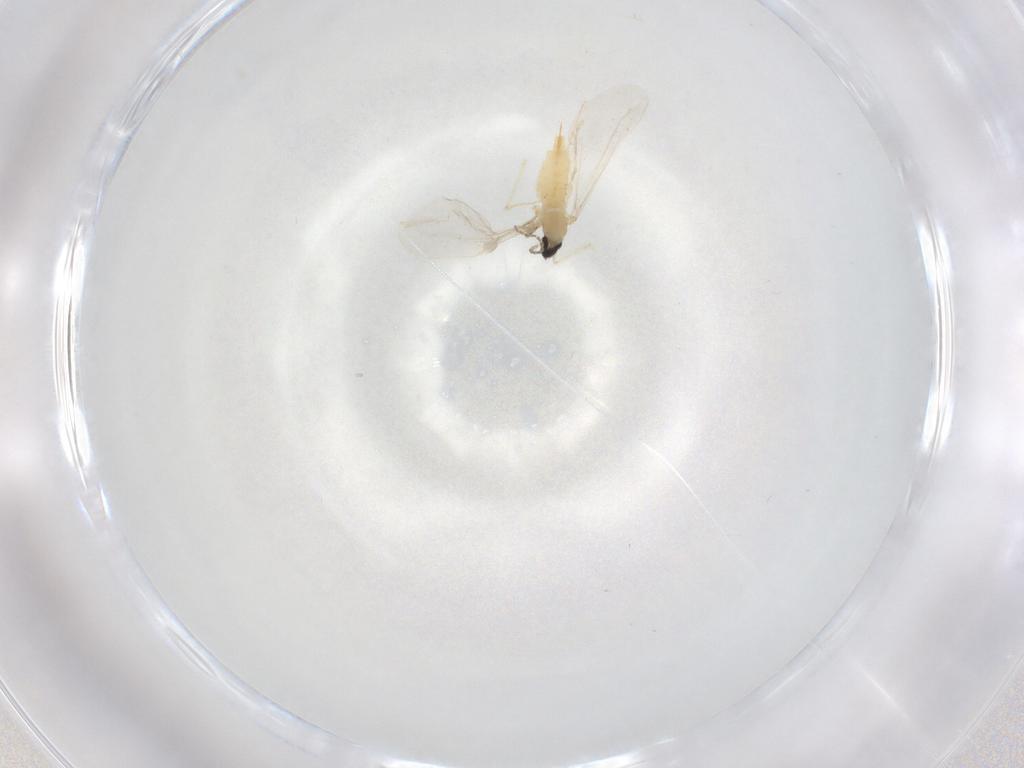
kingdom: Animalia
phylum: Arthropoda
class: Insecta
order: Diptera
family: Cecidomyiidae
